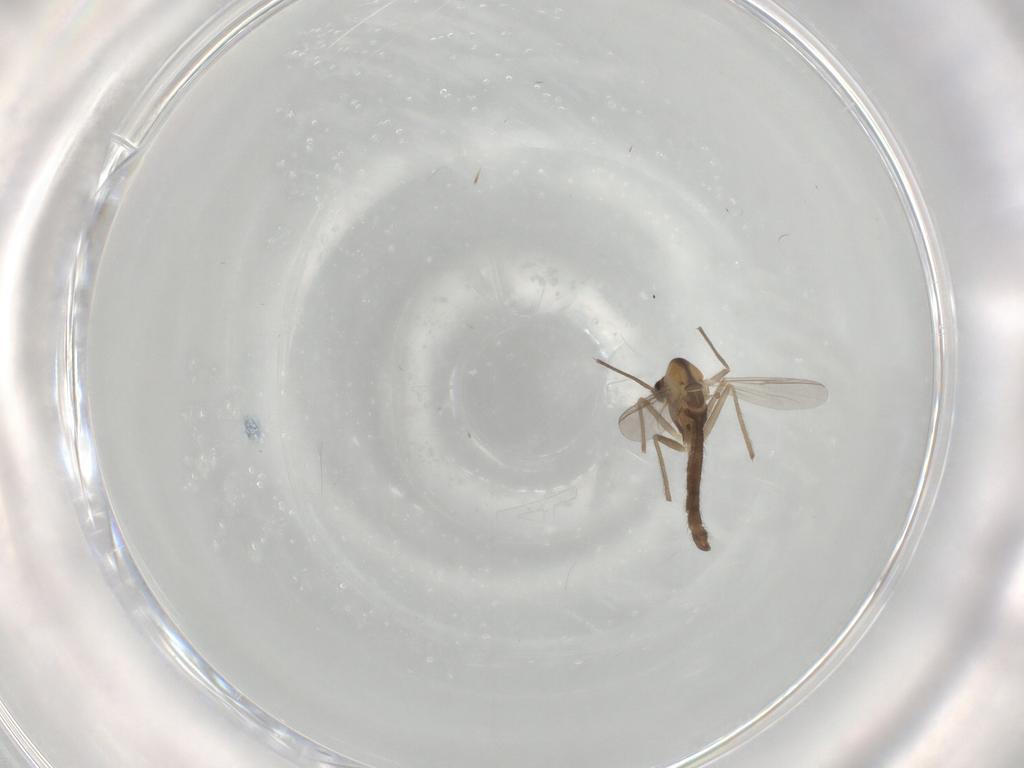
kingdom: Animalia
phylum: Arthropoda
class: Insecta
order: Diptera
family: Chironomidae
